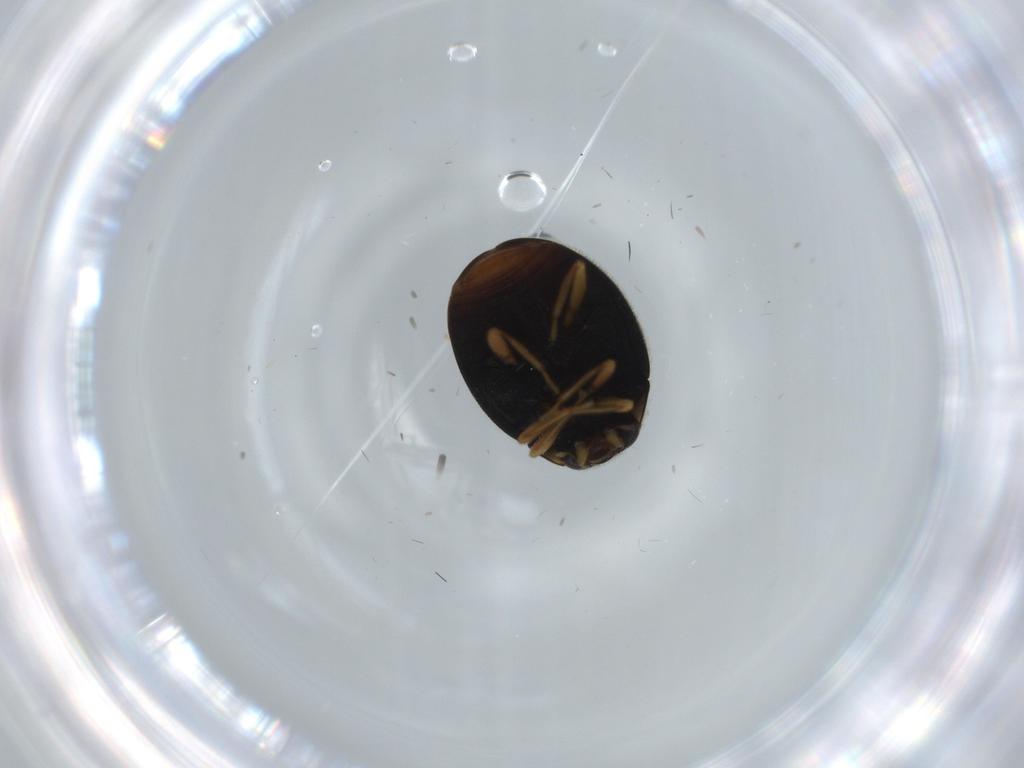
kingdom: Animalia
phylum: Arthropoda
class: Insecta
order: Coleoptera
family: Coccinellidae
